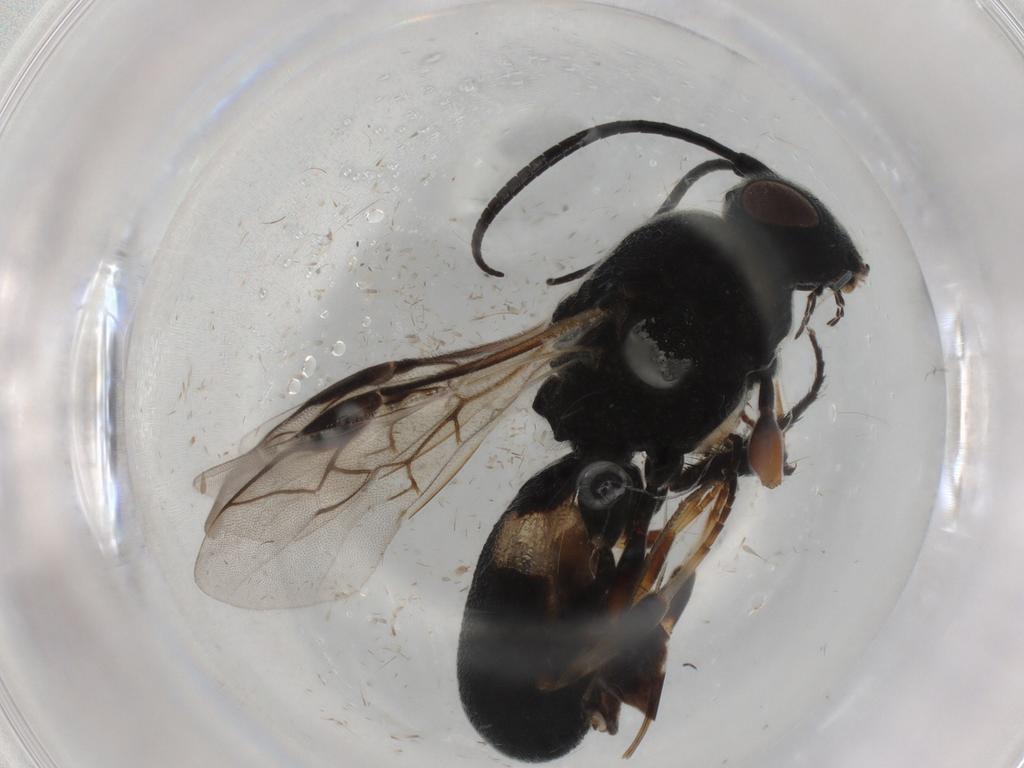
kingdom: Animalia
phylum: Arthropoda
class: Insecta
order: Hymenoptera
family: Braconidae
